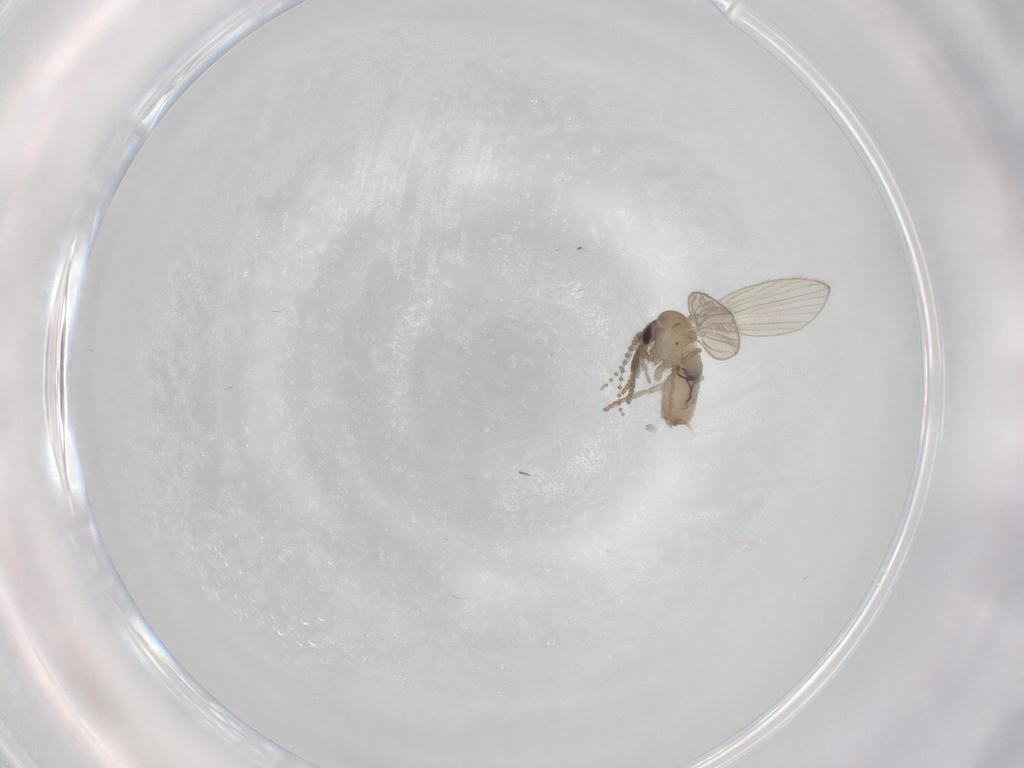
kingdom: Animalia
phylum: Arthropoda
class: Insecta
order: Diptera
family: Psychodidae
